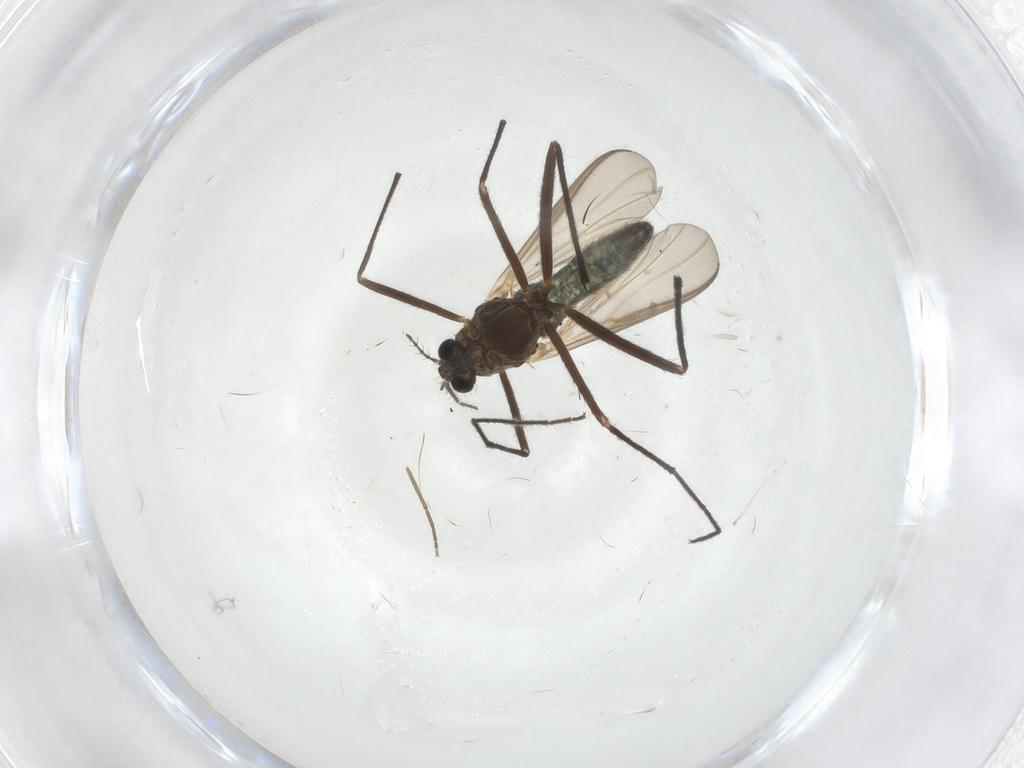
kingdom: Animalia
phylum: Arthropoda
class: Insecta
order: Diptera
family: Chironomidae
